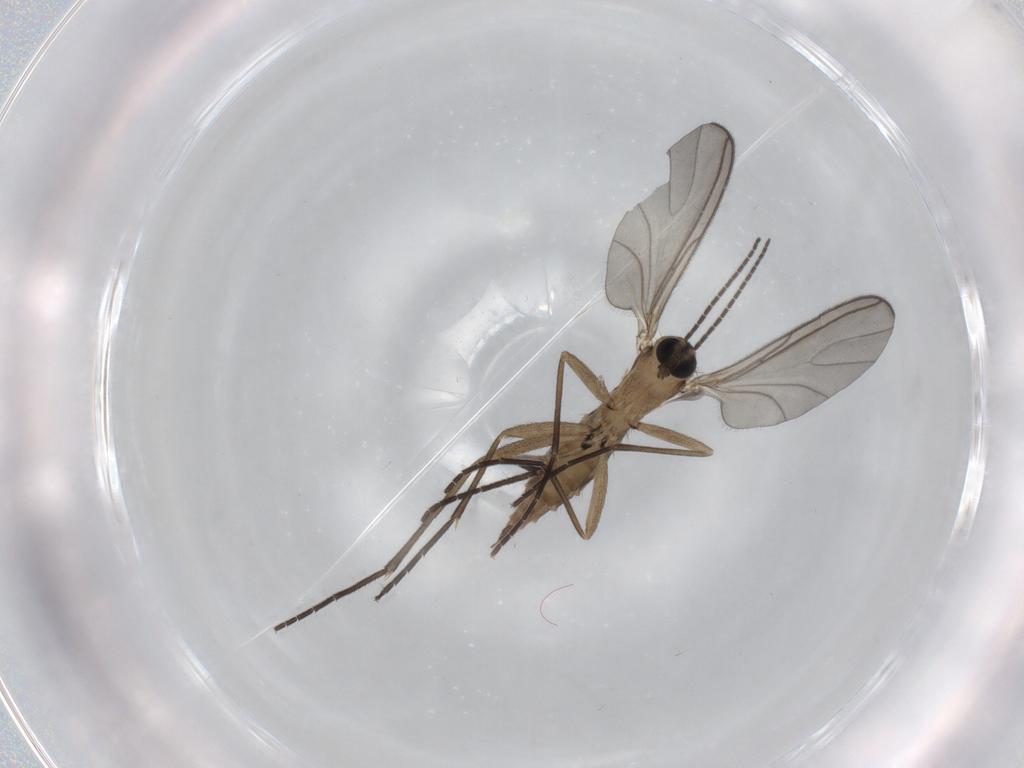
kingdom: Animalia
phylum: Arthropoda
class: Insecta
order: Diptera
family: Sciaridae
